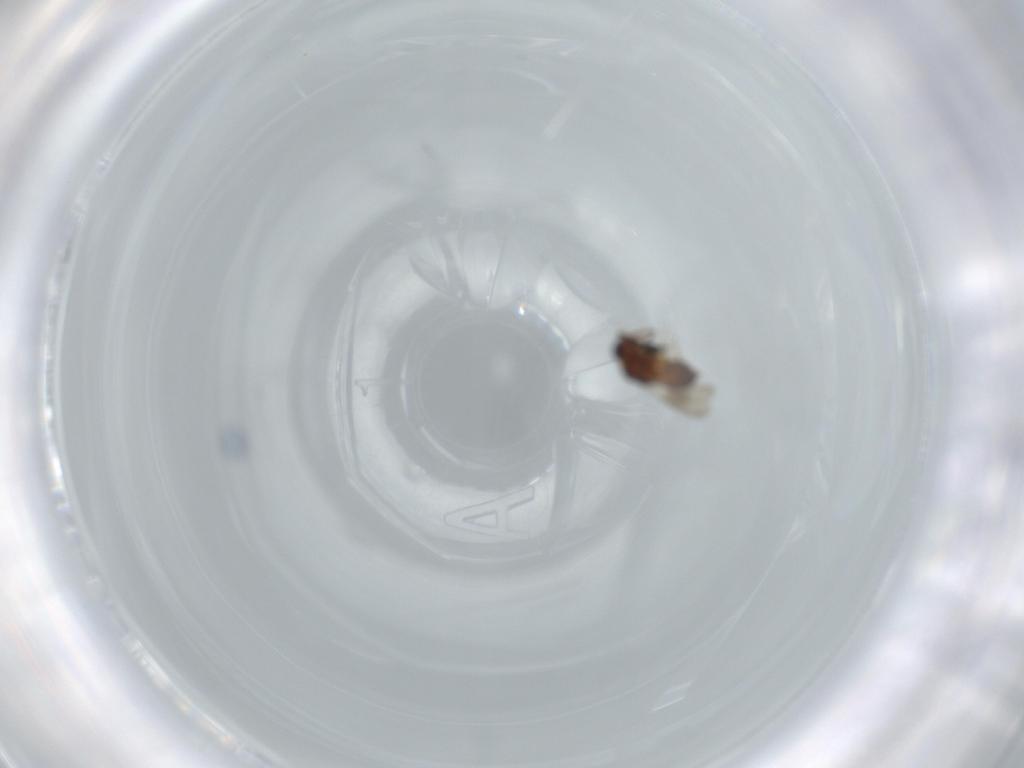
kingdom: Animalia
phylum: Arthropoda
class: Insecta
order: Hymenoptera
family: Ceraphronidae
